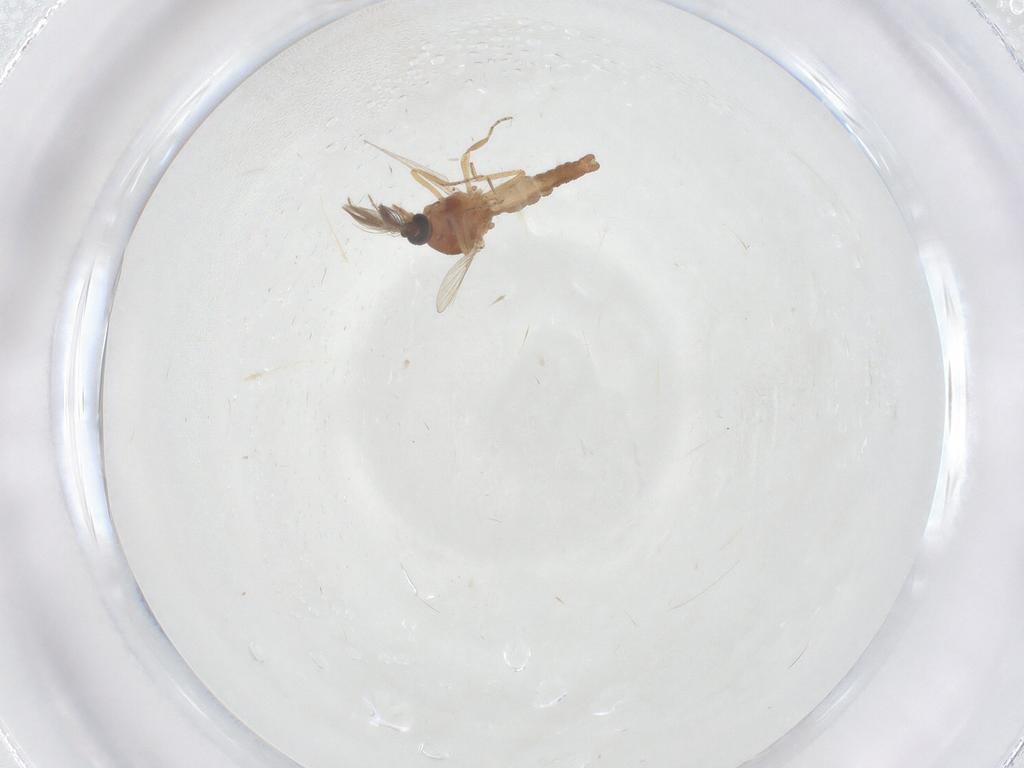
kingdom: Animalia
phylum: Arthropoda
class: Insecta
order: Diptera
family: Ceratopogonidae
